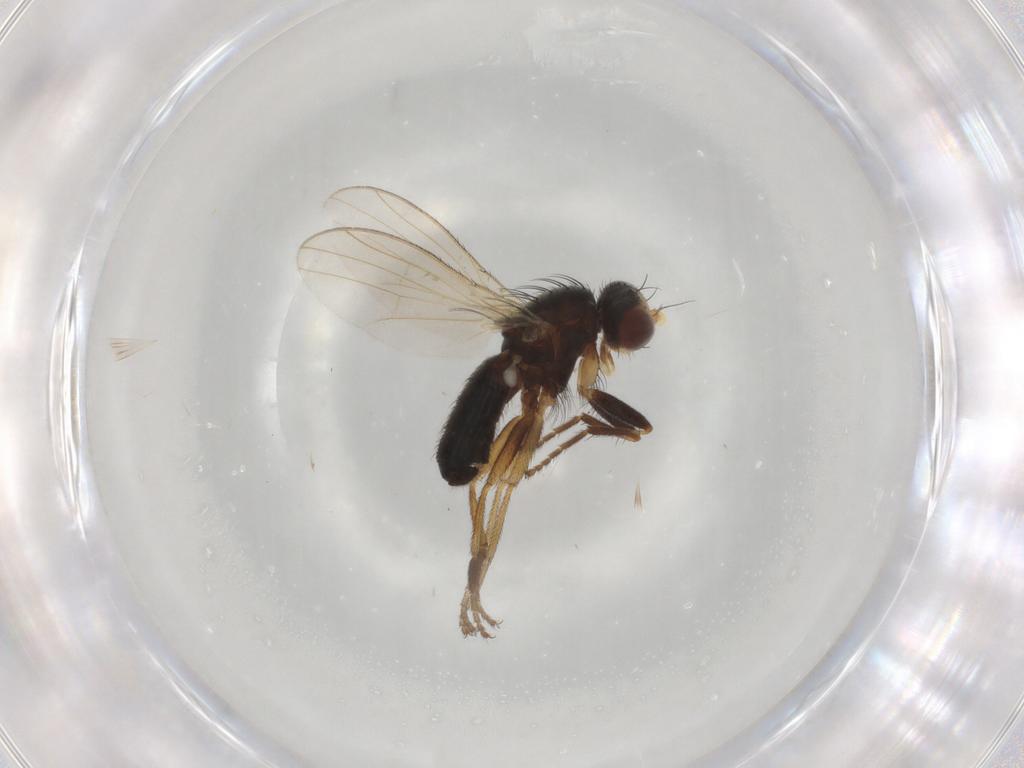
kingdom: Animalia
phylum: Arthropoda
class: Insecta
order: Diptera
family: Heleomyzidae
